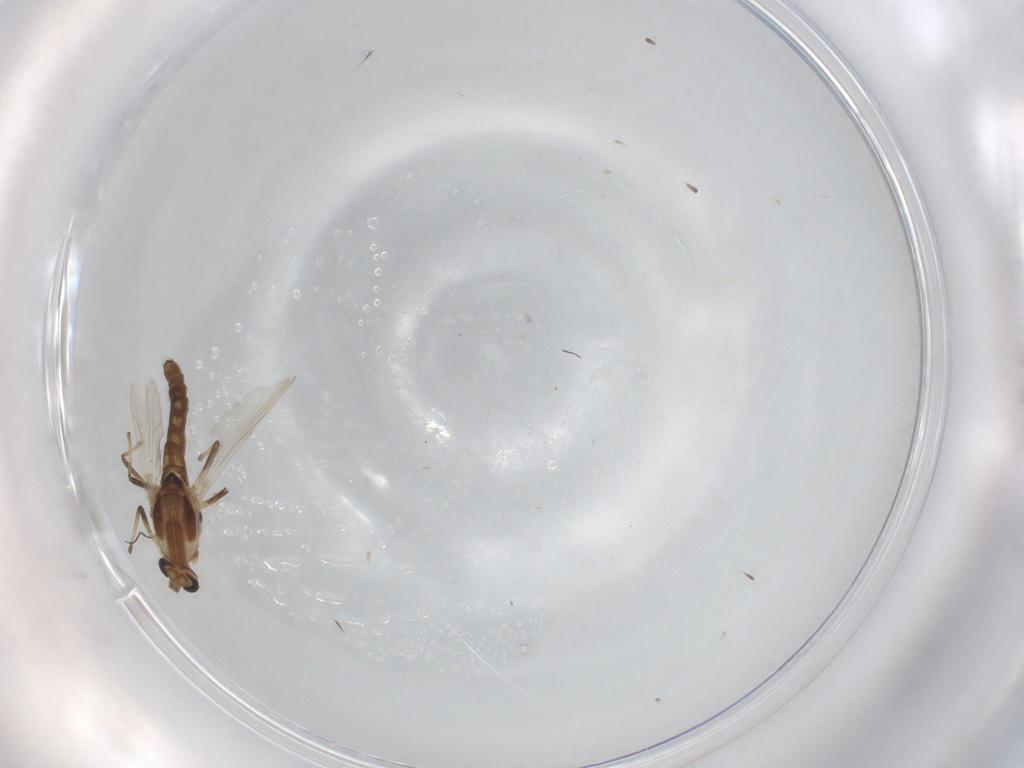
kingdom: Animalia
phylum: Arthropoda
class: Insecta
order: Diptera
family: Chironomidae
